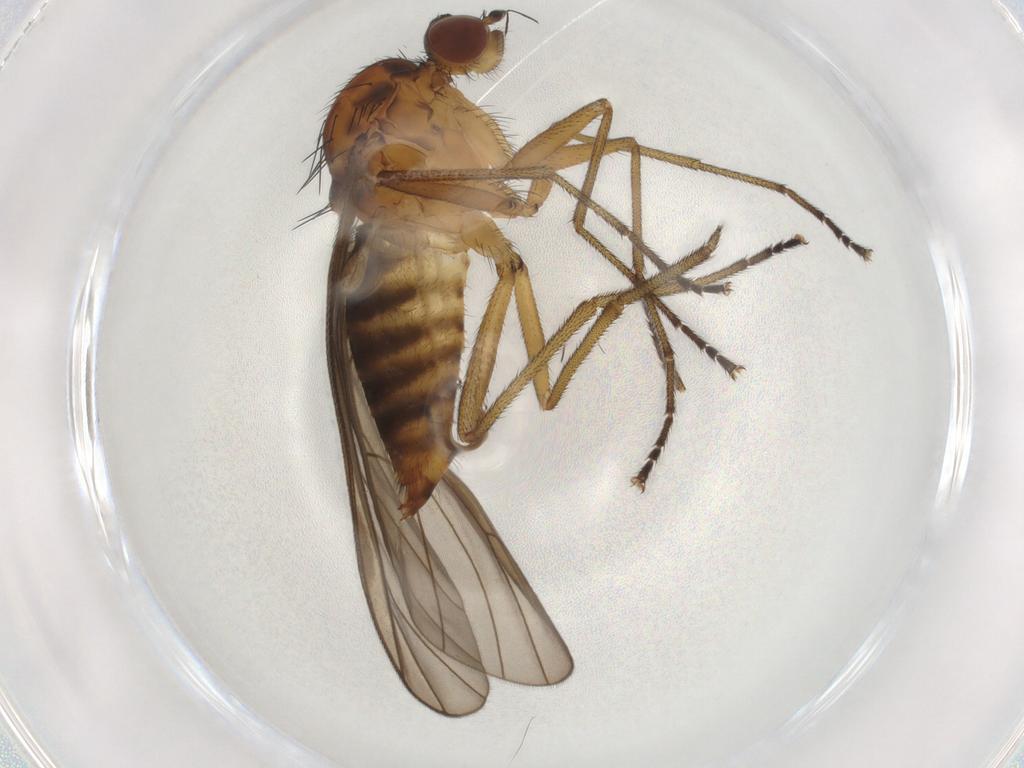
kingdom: Animalia
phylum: Arthropoda
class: Insecta
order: Diptera
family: Brachystomatidae
